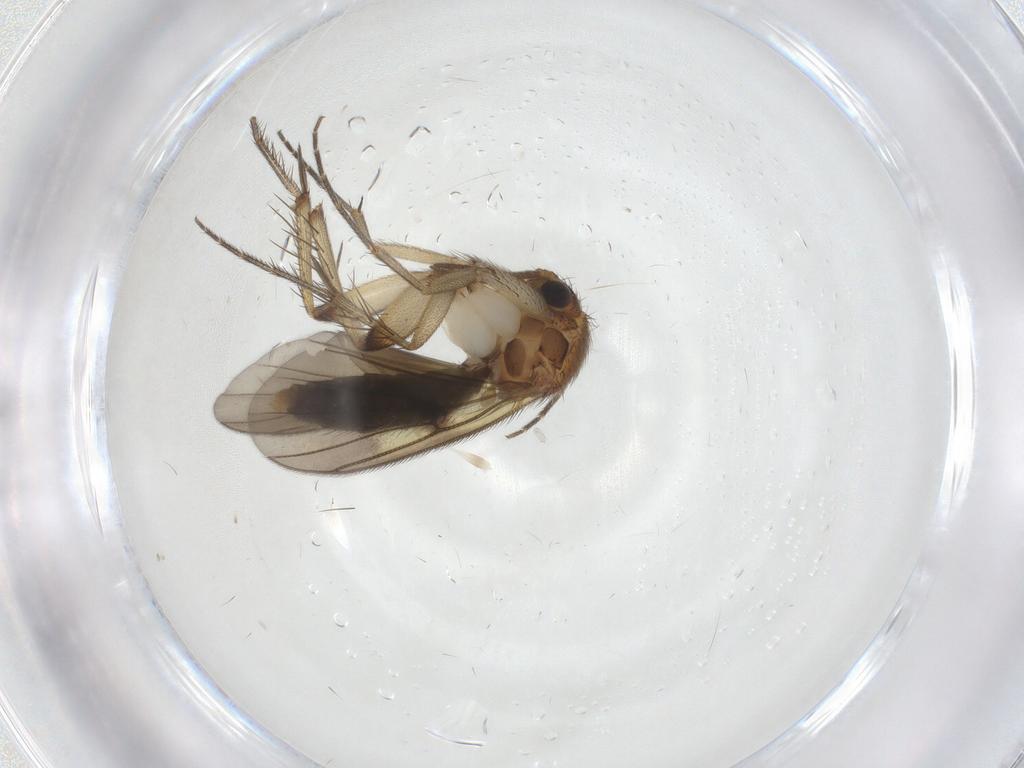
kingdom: Animalia
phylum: Arthropoda
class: Insecta
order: Diptera
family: Mycetophilidae
